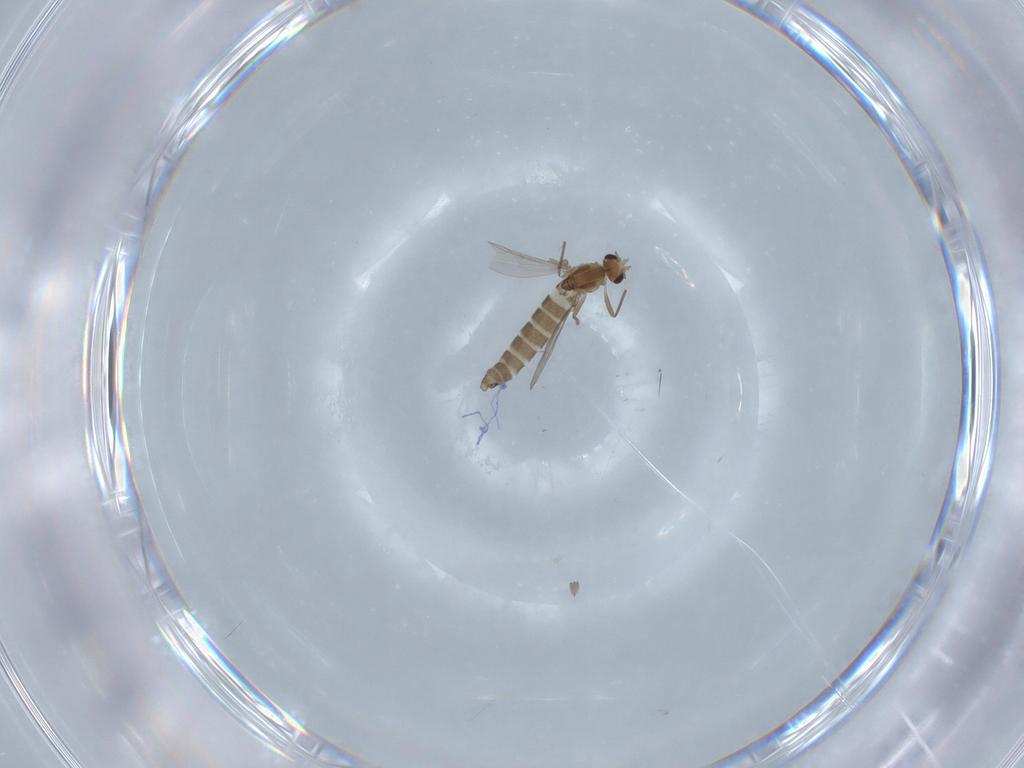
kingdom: Animalia
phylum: Arthropoda
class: Insecta
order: Diptera
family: Chironomidae
